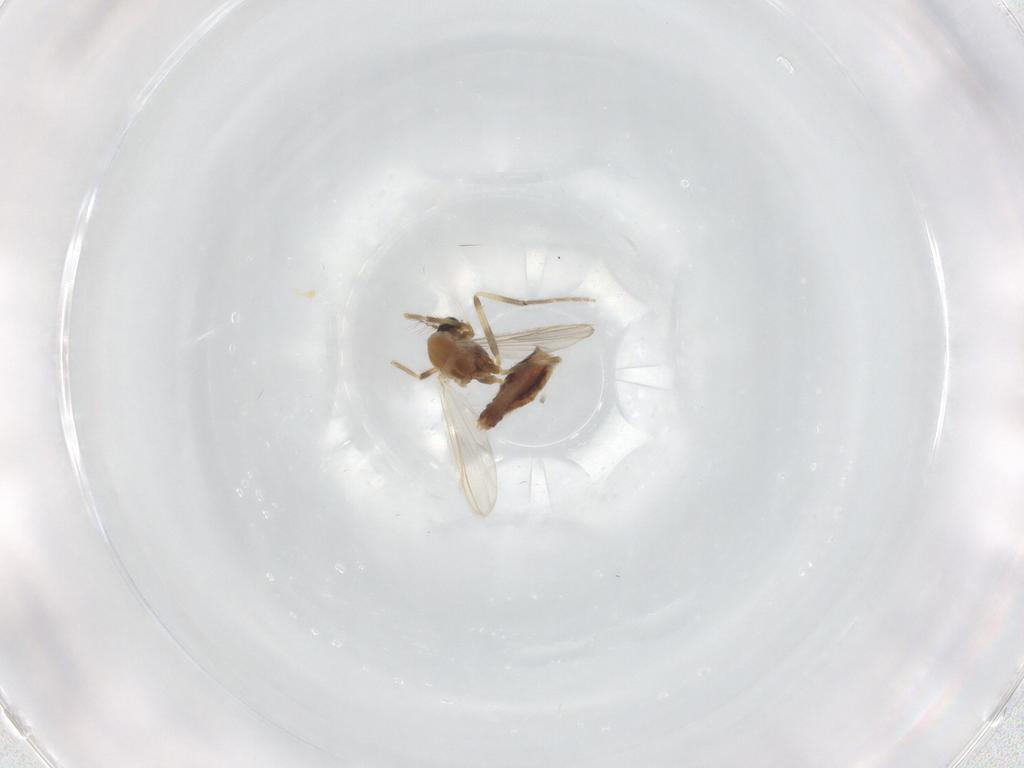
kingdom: Animalia
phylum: Arthropoda
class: Insecta
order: Diptera
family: Chironomidae
